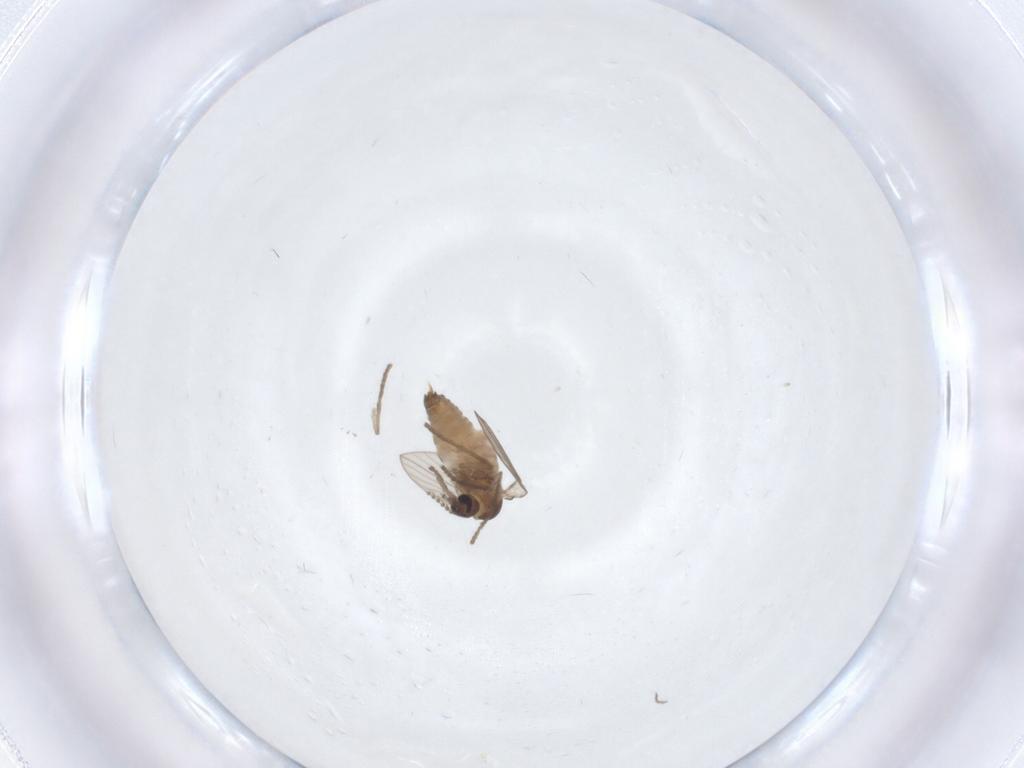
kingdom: Animalia
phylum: Arthropoda
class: Insecta
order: Diptera
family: Psychodidae
